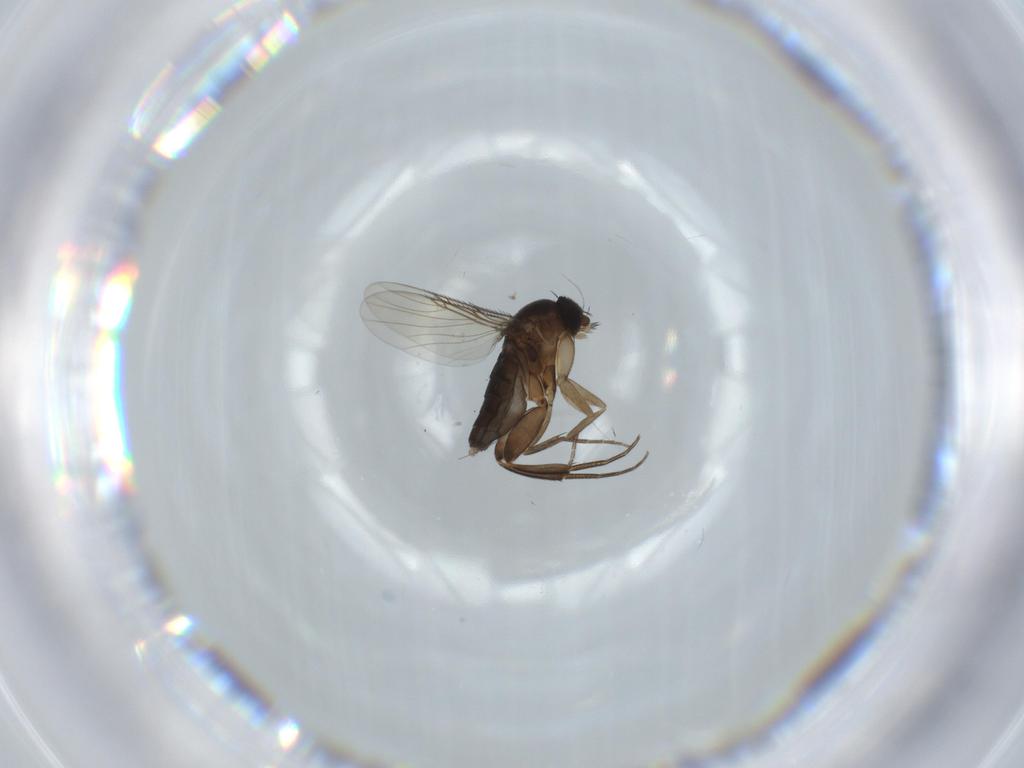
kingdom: Animalia
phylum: Arthropoda
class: Insecta
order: Diptera
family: Phoridae
